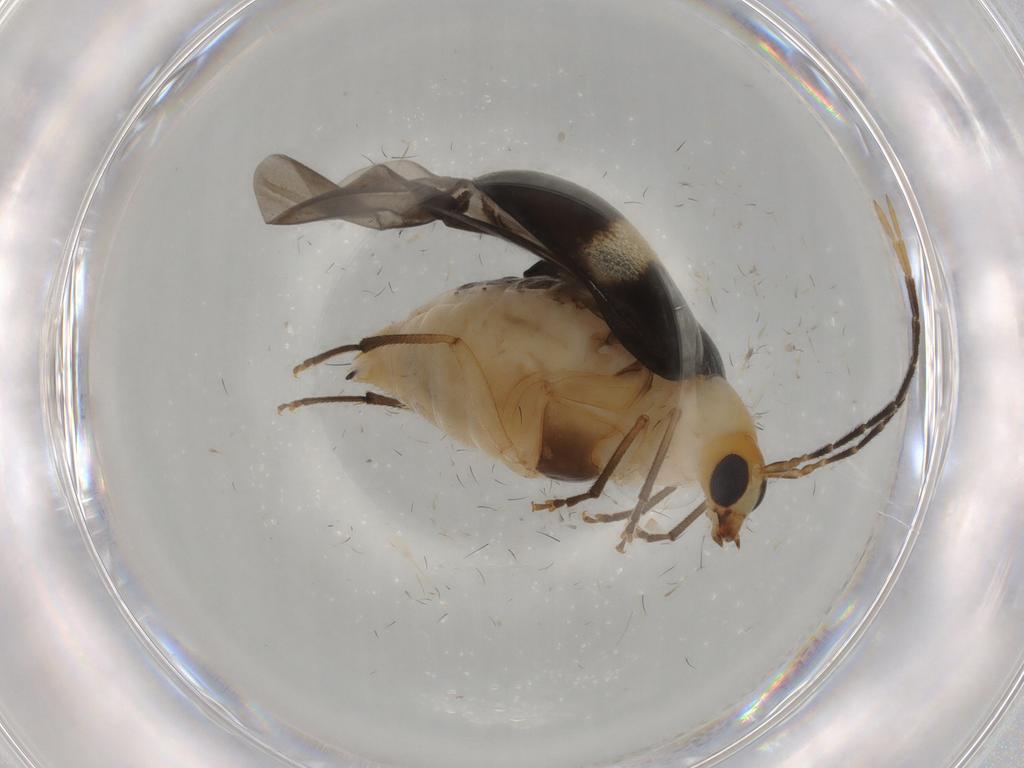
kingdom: Animalia
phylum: Arthropoda
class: Insecta
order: Coleoptera
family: Chrysomelidae
